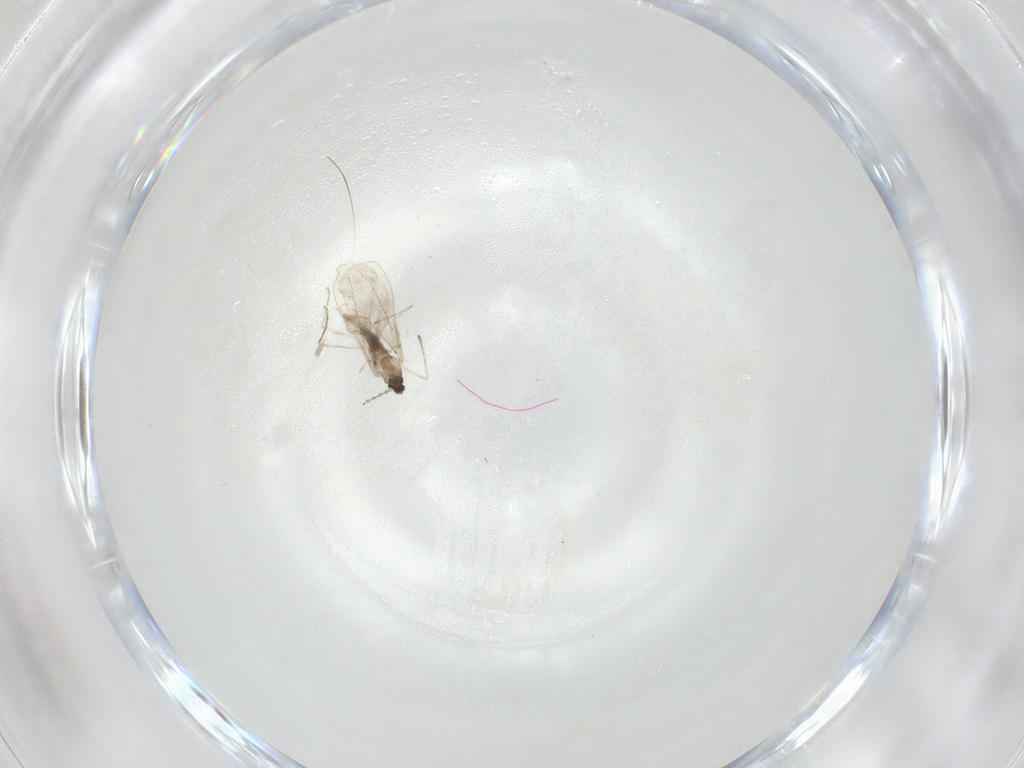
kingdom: Animalia
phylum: Arthropoda
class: Insecta
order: Diptera
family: Cecidomyiidae
